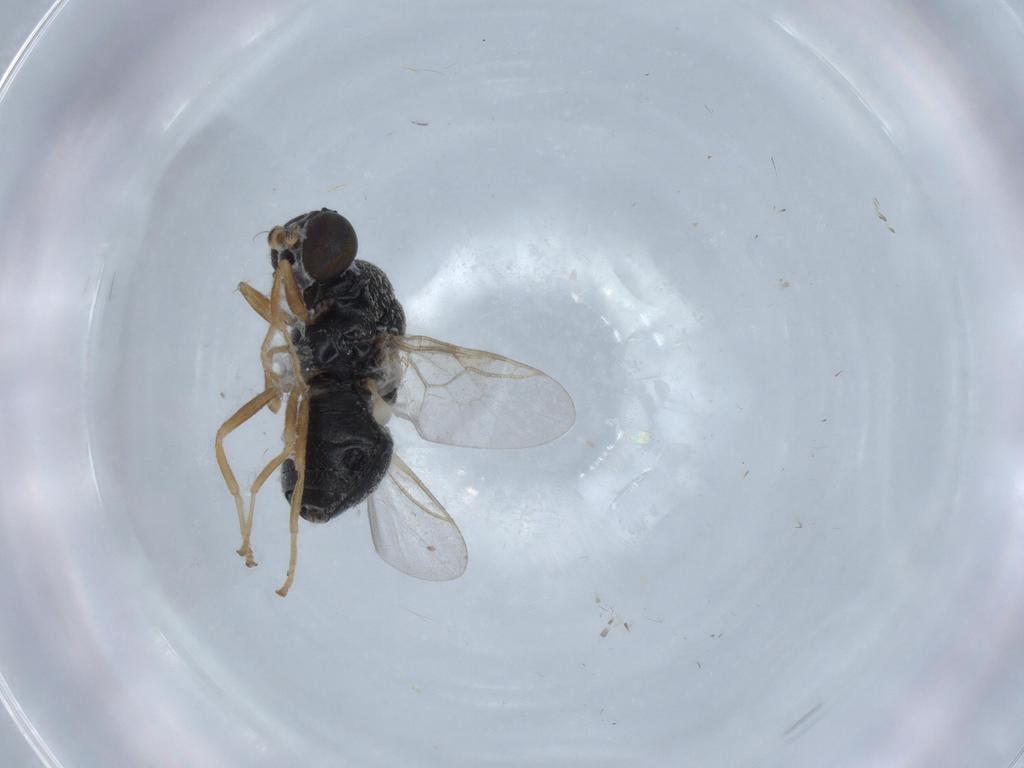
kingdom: Animalia
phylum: Arthropoda
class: Insecta
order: Diptera
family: Stratiomyidae
